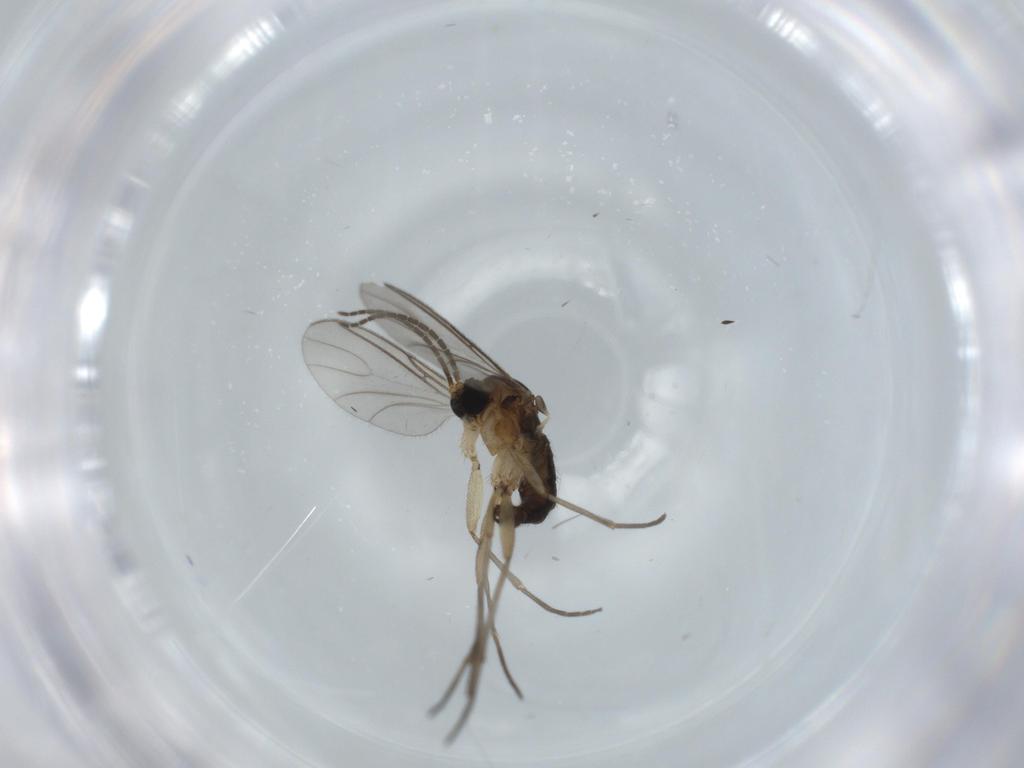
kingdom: Animalia
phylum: Arthropoda
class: Insecta
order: Diptera
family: Sciaridae
